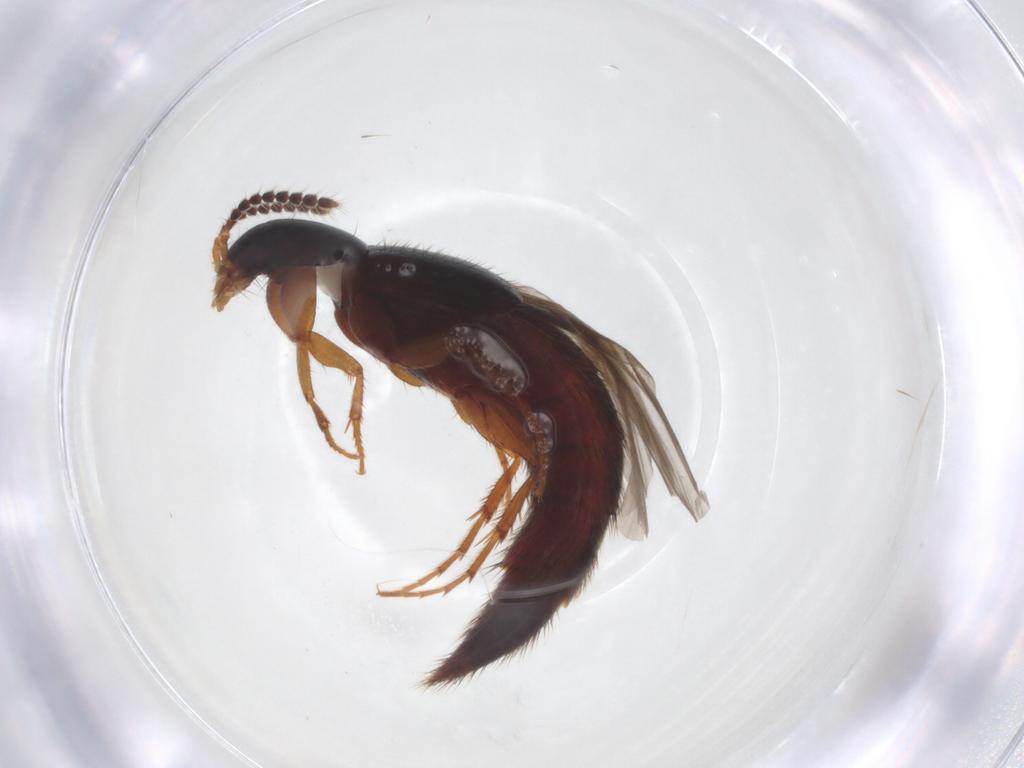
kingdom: Animalia
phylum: Arthropoda
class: Insecta
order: Coleoptera
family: Staphylinidae
